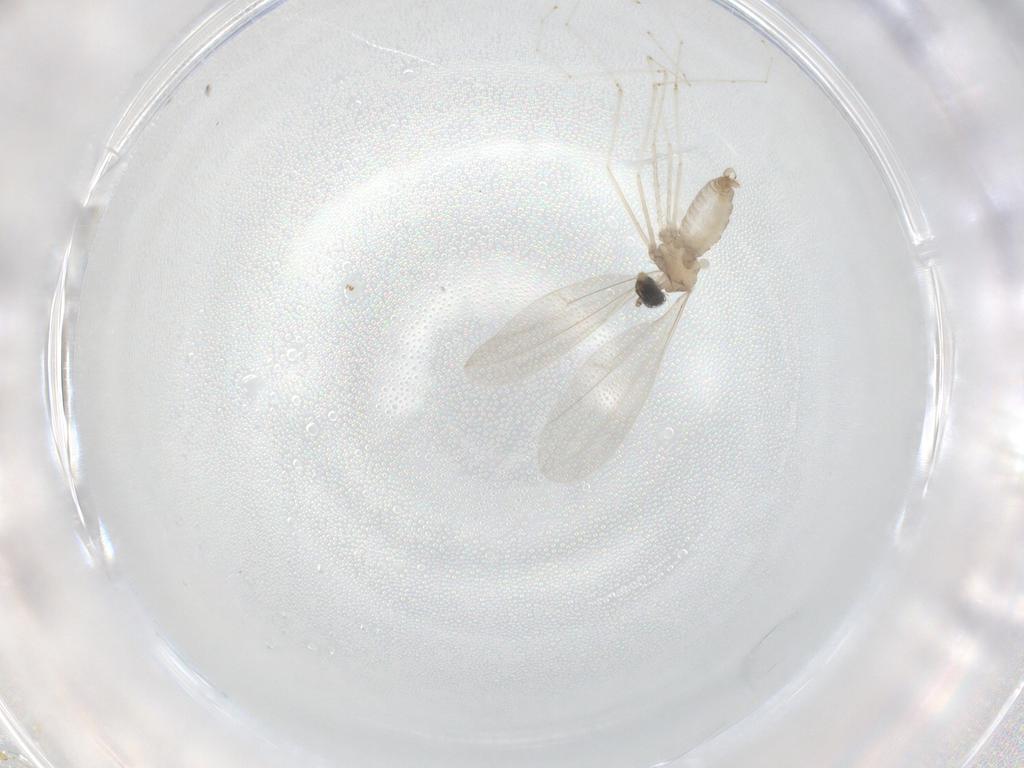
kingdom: Animalia
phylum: Arthropoda
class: Insecta
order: Diptera
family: Cecidomyiidae
